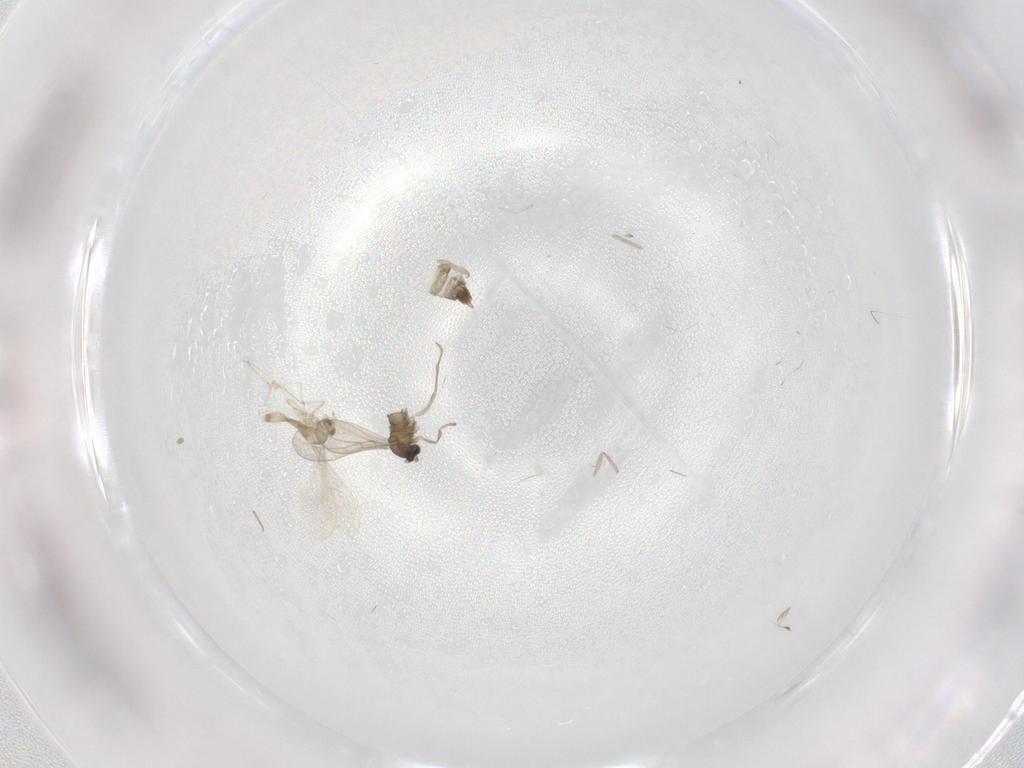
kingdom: Animalia
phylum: Arthropoda
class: Insecta
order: Diptera
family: Cecidomyiidae
